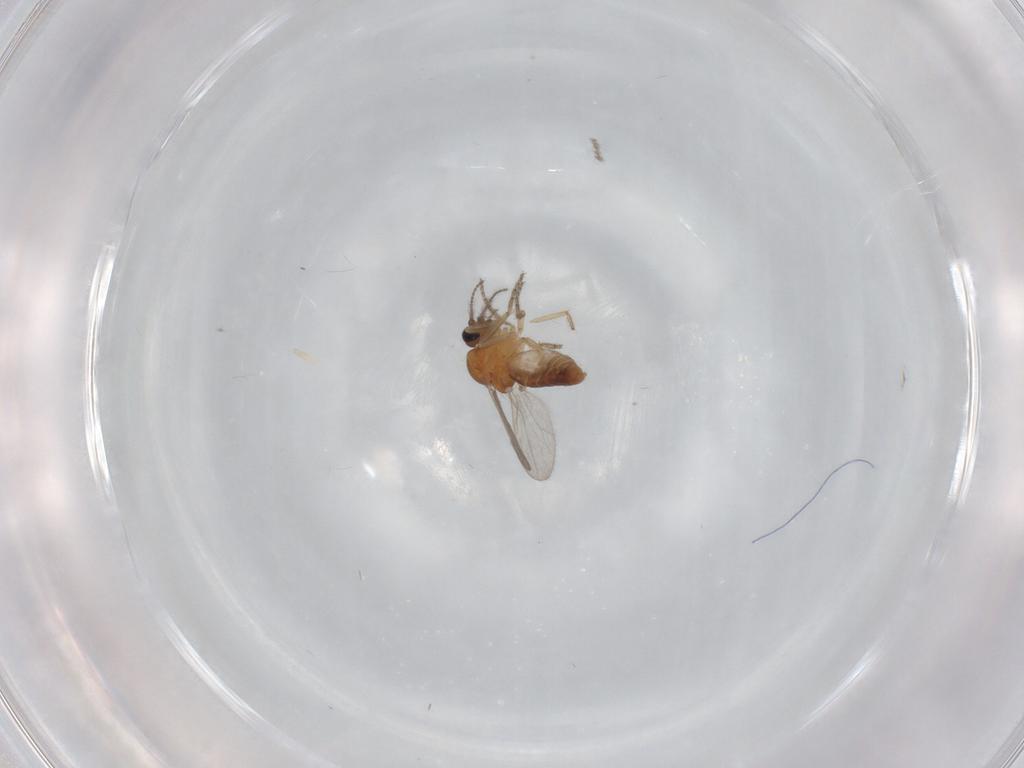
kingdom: Animalia
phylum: Arthropoda
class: Insecta
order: Diptera
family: Ceratopogonidae
